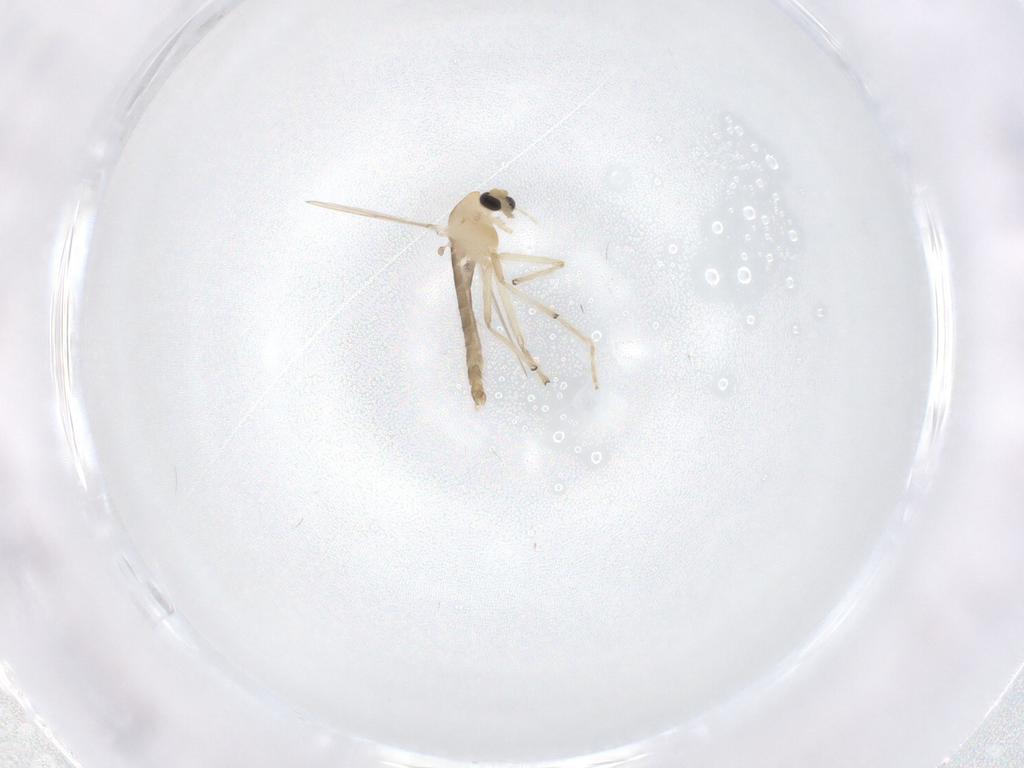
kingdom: Animalia
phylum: Arthropoda
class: Insecta
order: Diptera
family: Chironomidae
